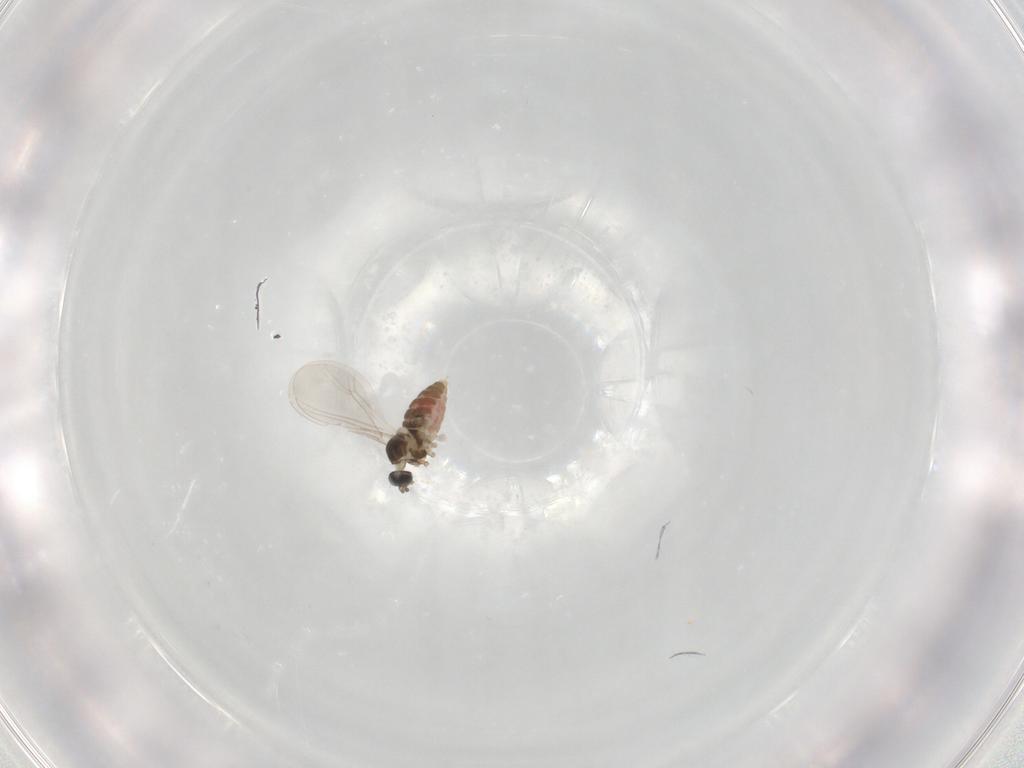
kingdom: Animalia
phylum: Arthropoda
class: Insecta
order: Diptera
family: Cecidomyiidae
